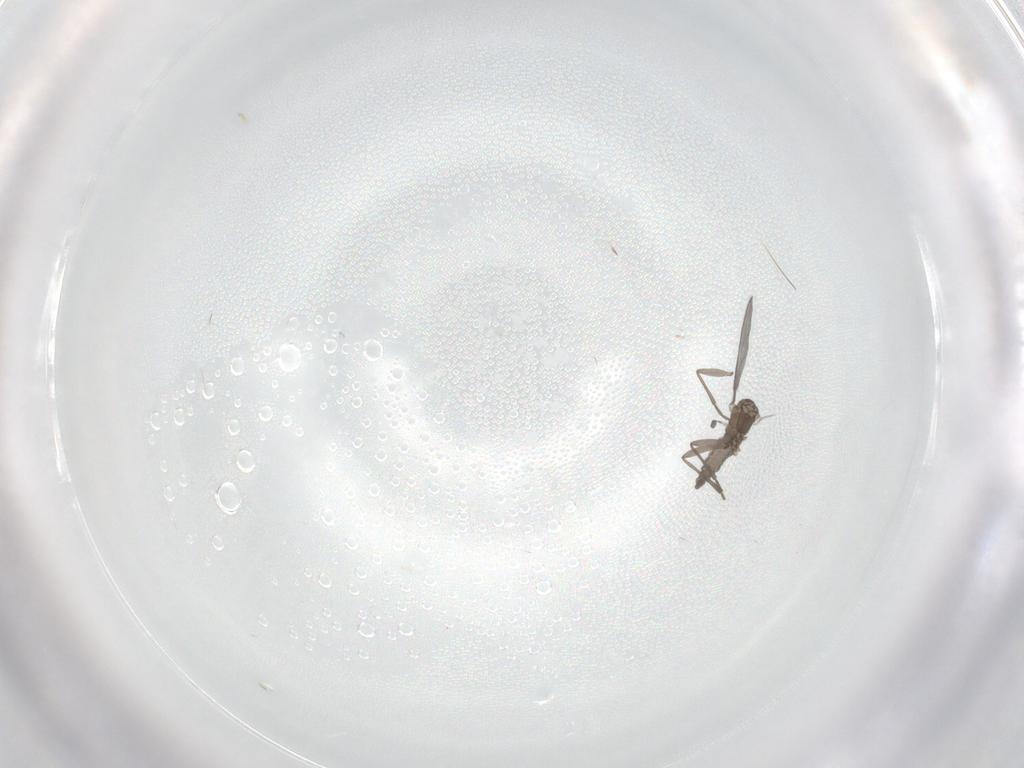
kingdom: Animalia
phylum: Arthropoda
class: Insecta
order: Diptera
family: Sciaridae
